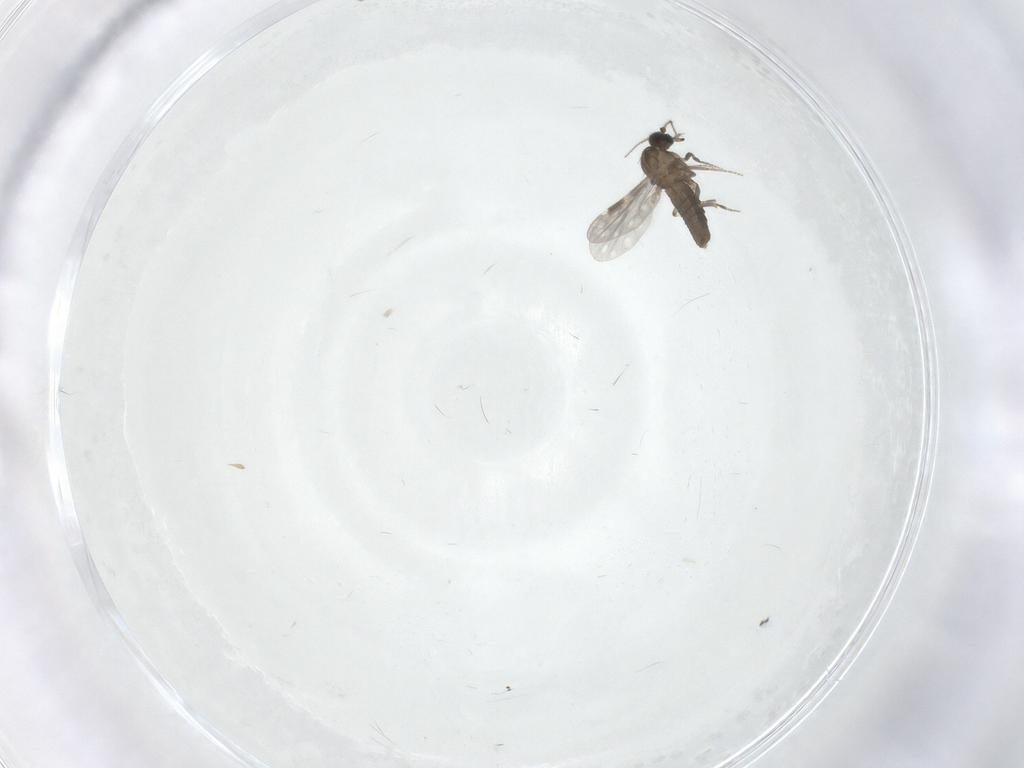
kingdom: Animalia
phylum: Arthropoda
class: Insecta
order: Diptera
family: Ceratopogonidae
